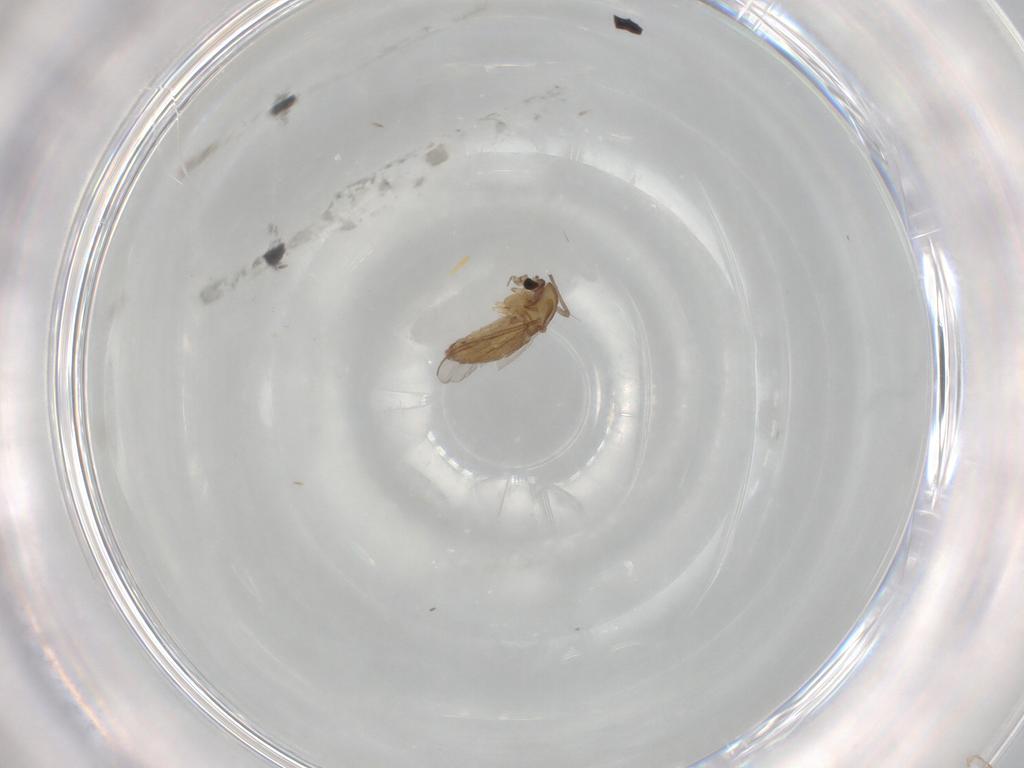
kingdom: Animalia
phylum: Arthropoda
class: Insecta
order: Diptera
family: Chironomidae
